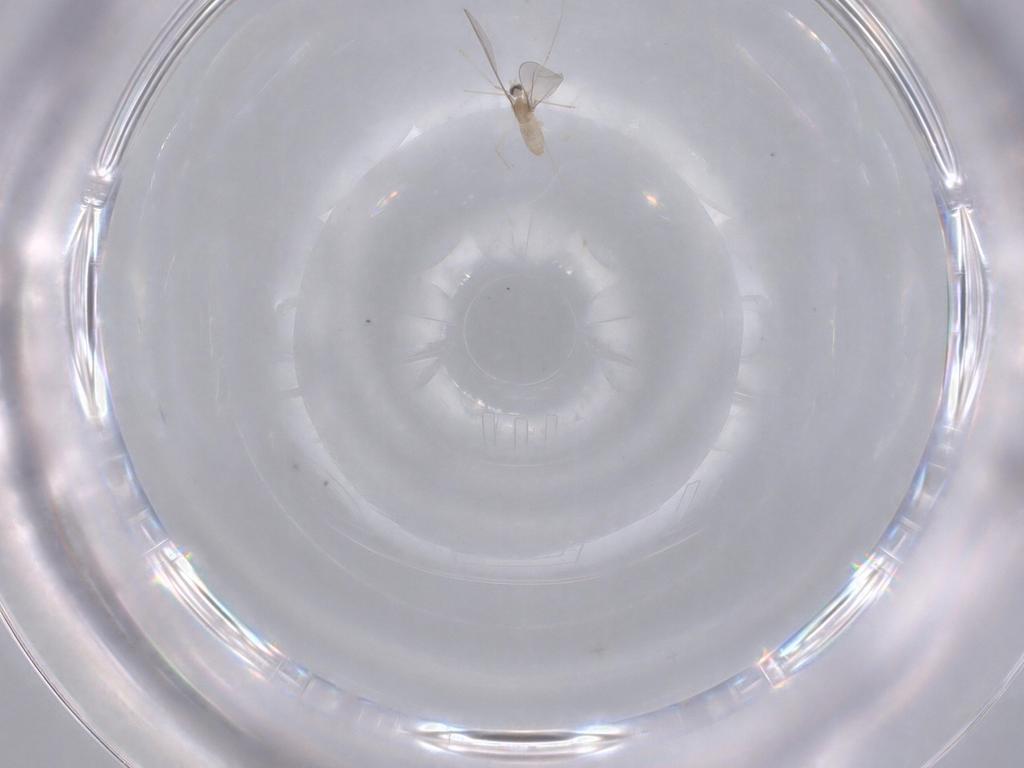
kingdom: Animalia
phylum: Arthropoda
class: Insecta
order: Diptera
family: Cecidomyiidae
